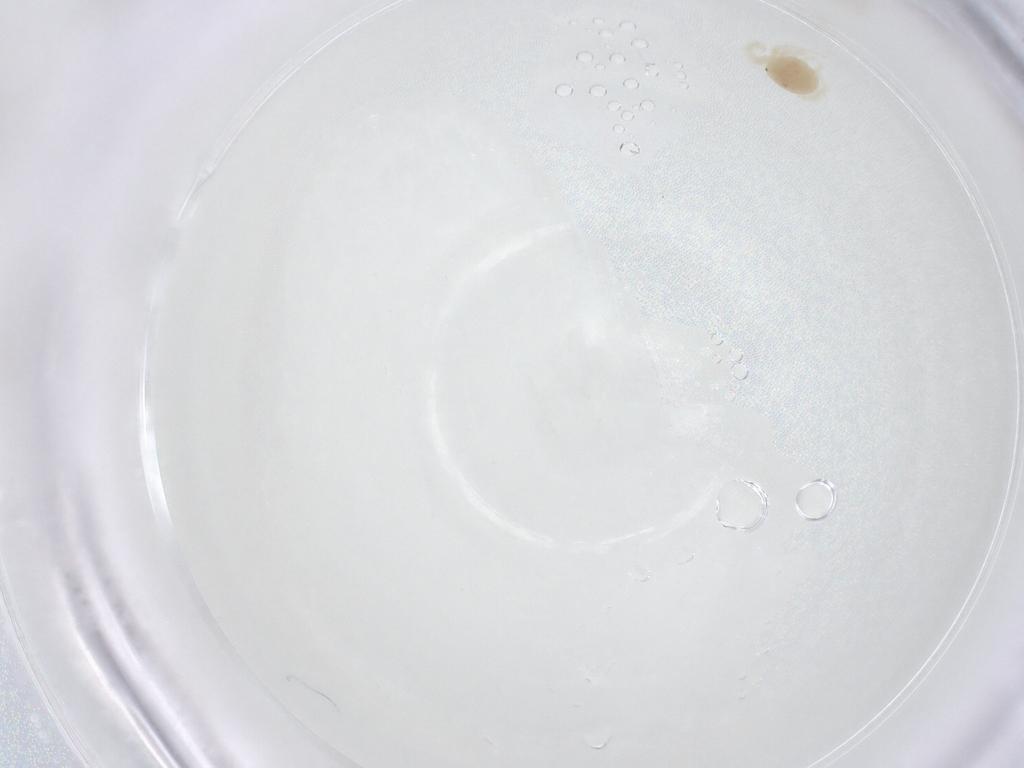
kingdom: Animalia
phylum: Arthropoda
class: Arachnida
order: Trombidiformes
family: Anystidae
